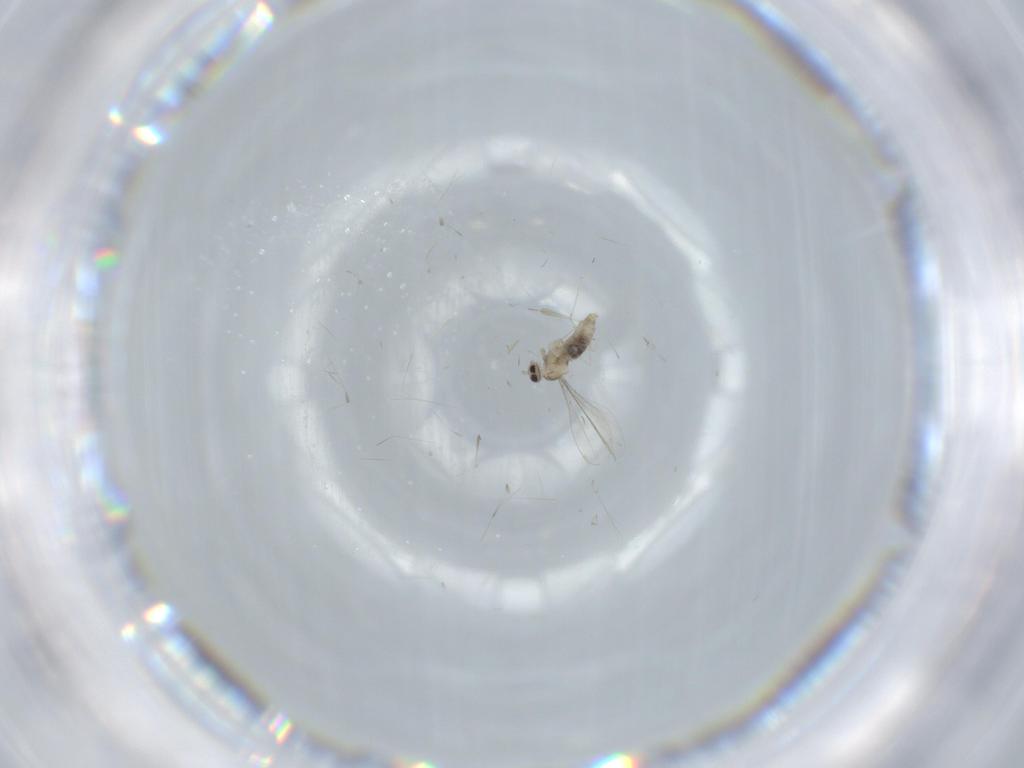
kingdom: Animalia
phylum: Arthropoda
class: Insecta
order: Diptera
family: Cecidomyiidae
